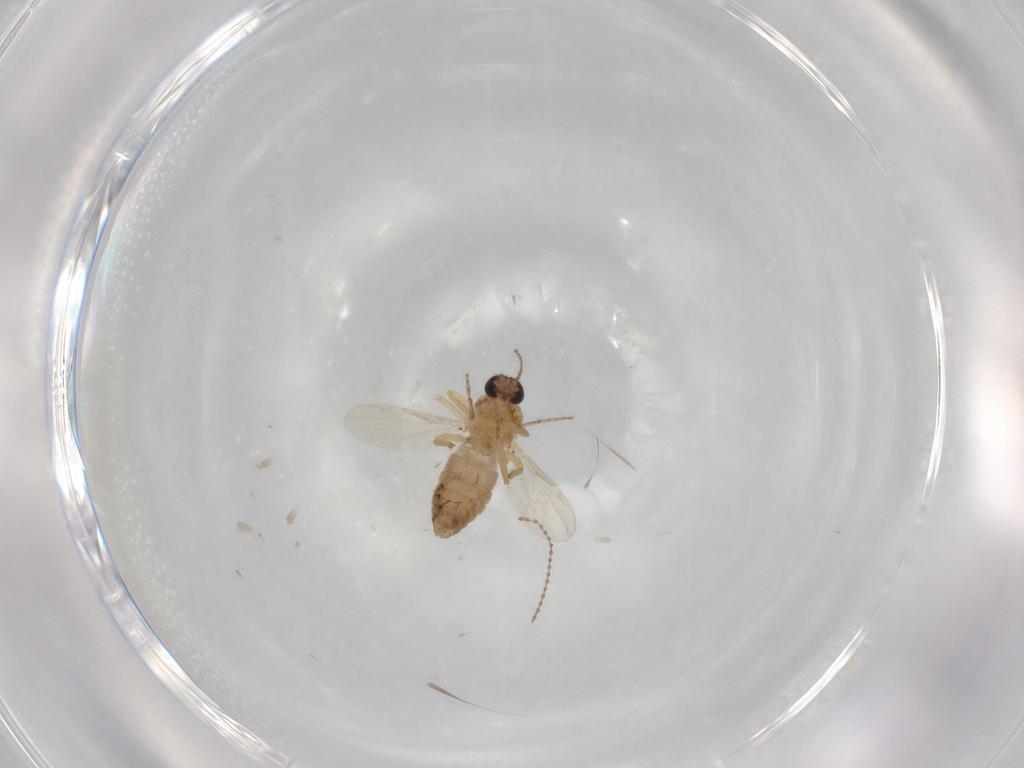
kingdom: Animalia
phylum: Arthropoda
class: Insecta
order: Diptera
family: Ceratopogonidae
